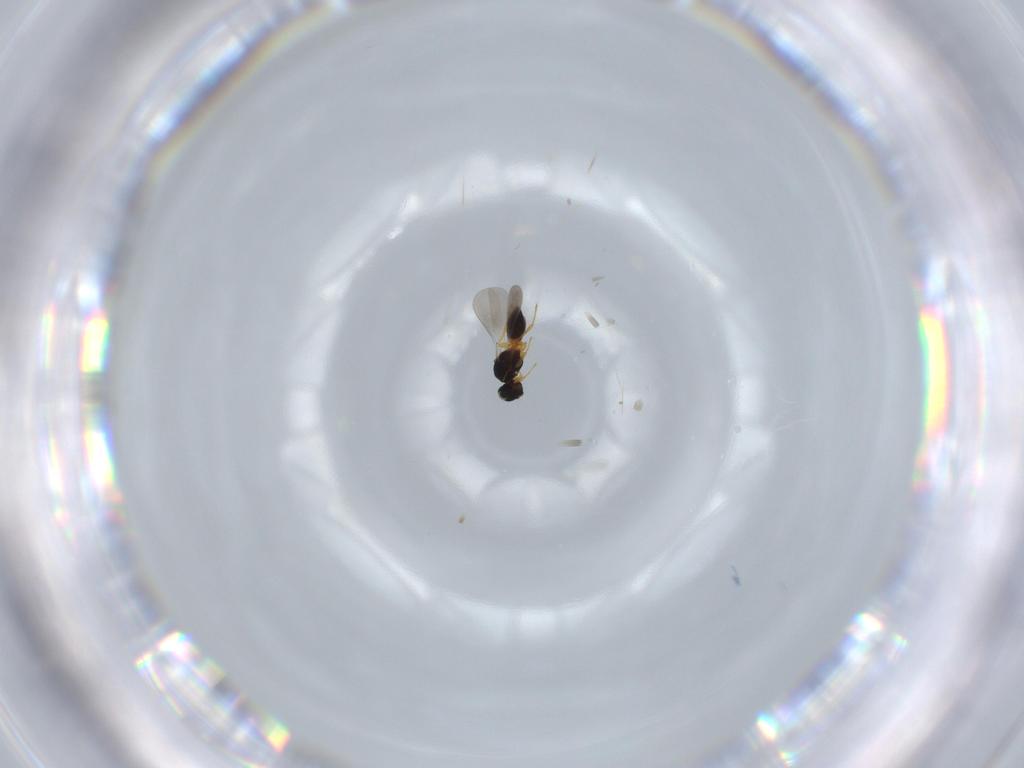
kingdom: Animalia
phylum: Arthropoda
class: Insecta
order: Hymenoptera
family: Platygastridae
